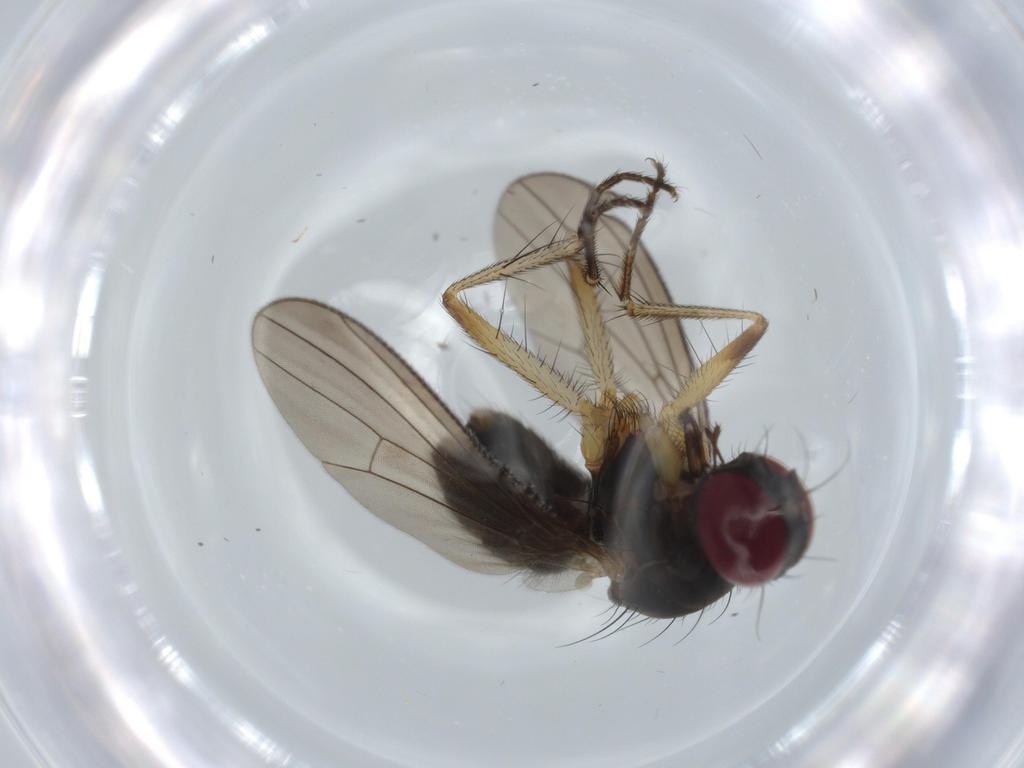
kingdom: Animalia
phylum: Arthropoda
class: Insecta
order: Diptera
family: Muscidae
